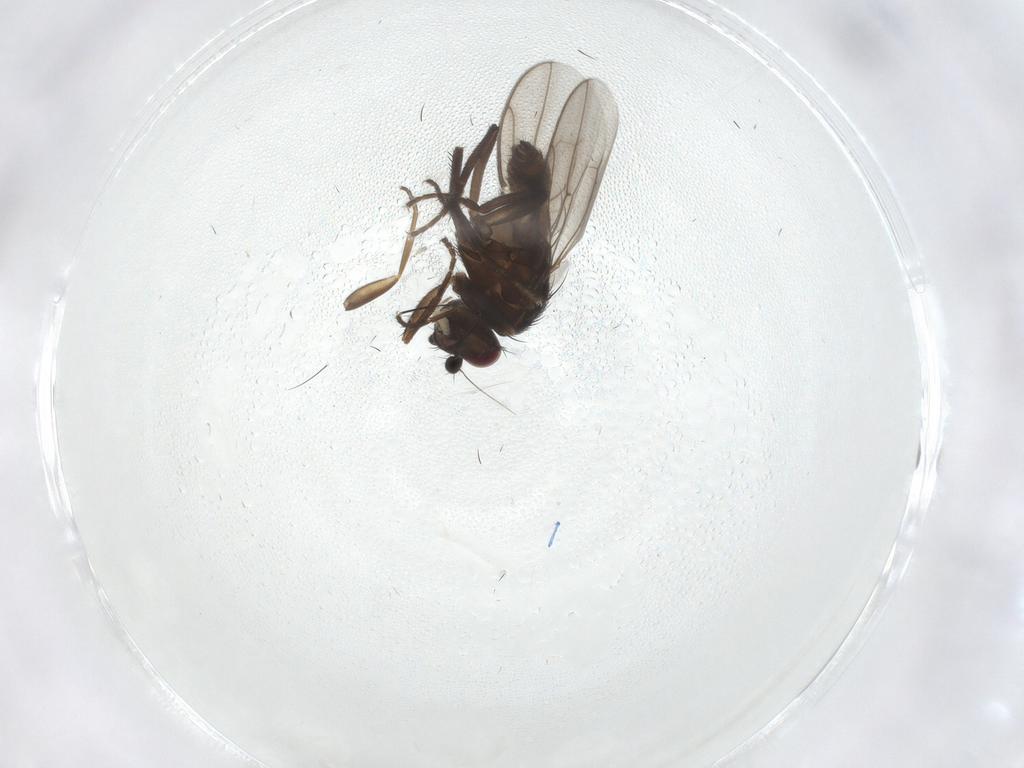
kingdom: Animalia
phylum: Arthropoda
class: Insecta
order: Diptera
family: Sphaeroceridae
